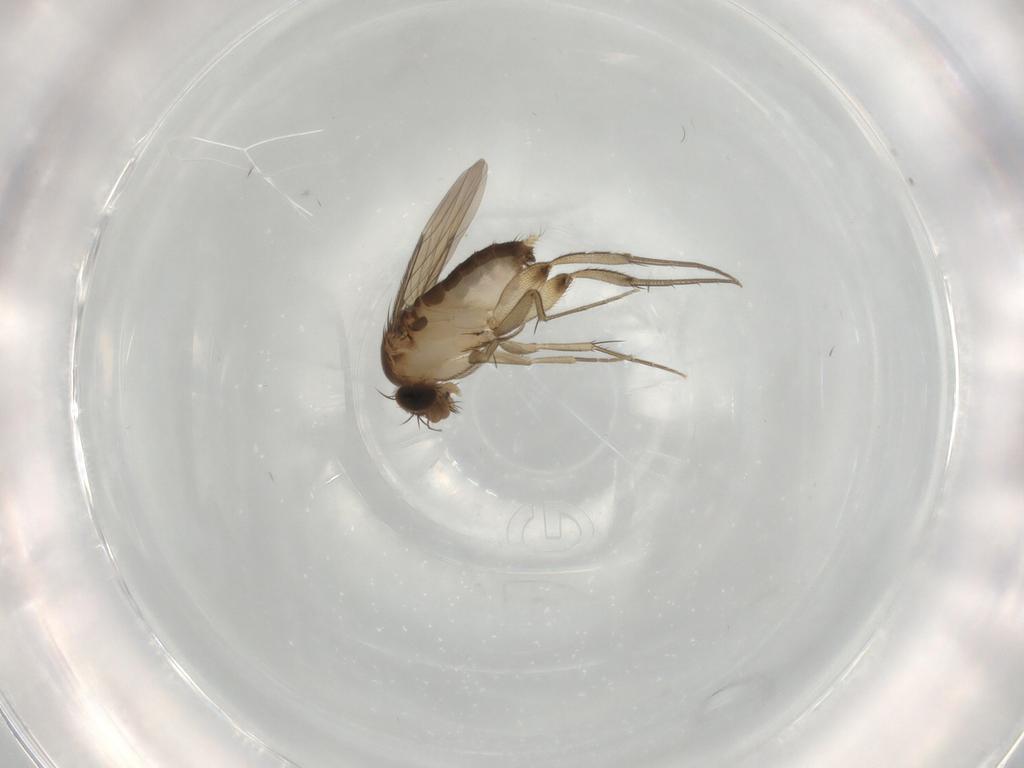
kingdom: Animalia
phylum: Arthropoda
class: Insecta
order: Diptera
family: Phoridae
